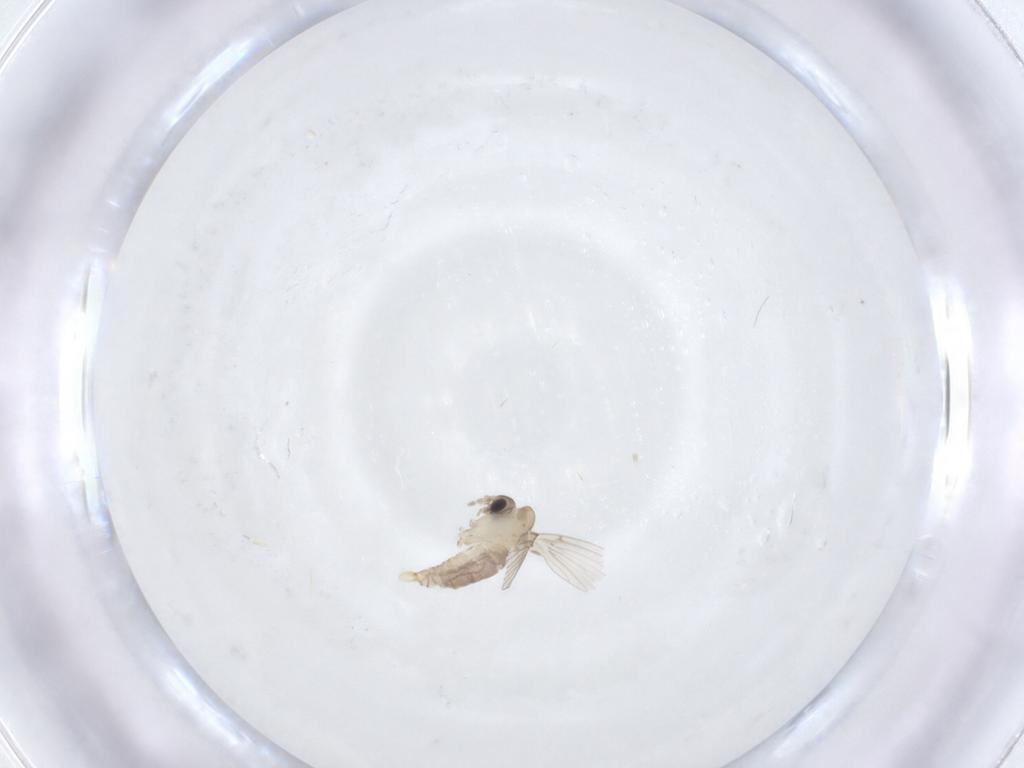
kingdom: Animalia
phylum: Arthropoda
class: Insecta
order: Diptera
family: Psychodidae
